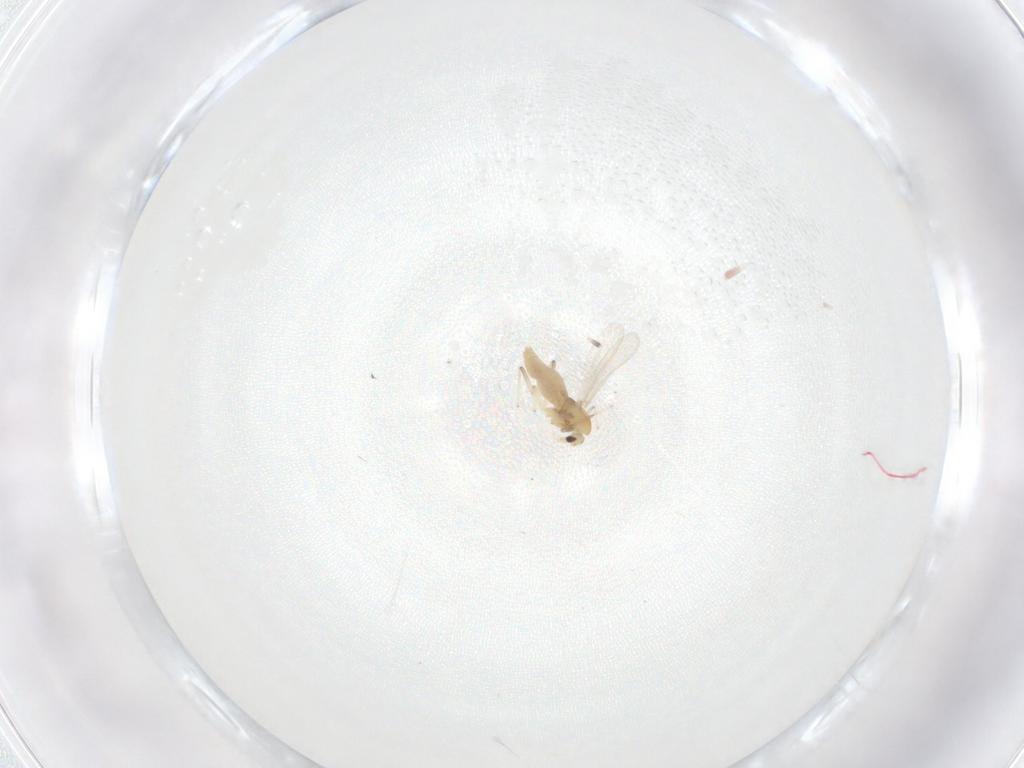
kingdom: Animalia
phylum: Arthropoda
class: Insecta
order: Diptera
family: Chironomidae
